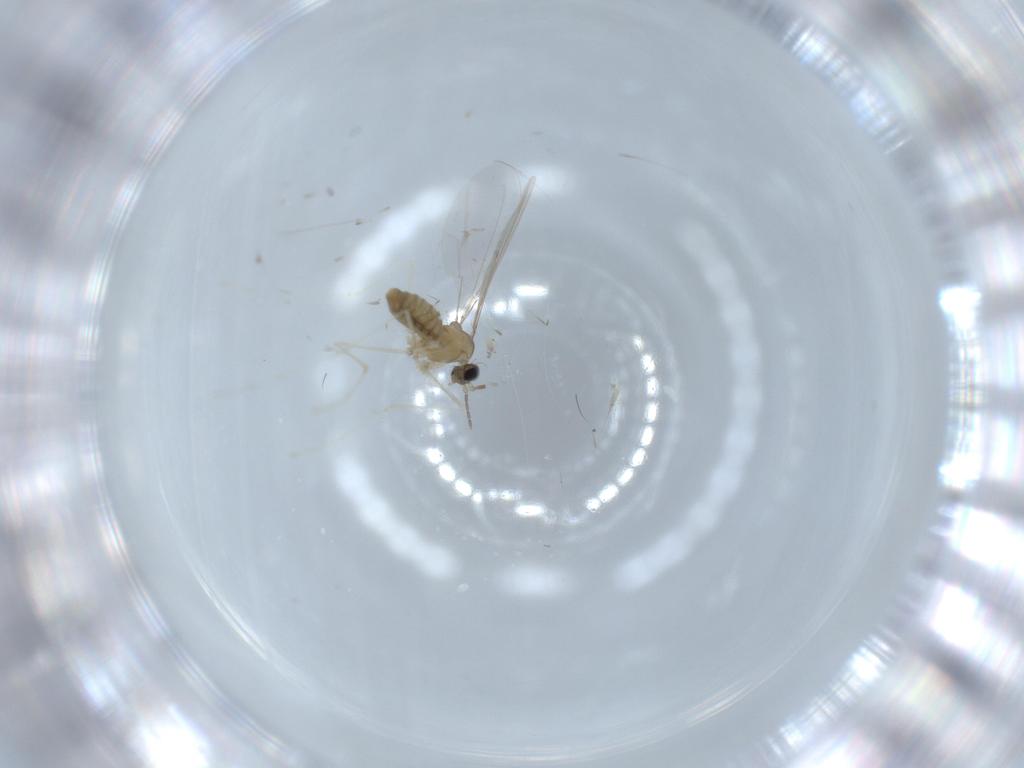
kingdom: Animalia
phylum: Arthropoda
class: Insecta
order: Diptera
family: Cecidomyiidae
